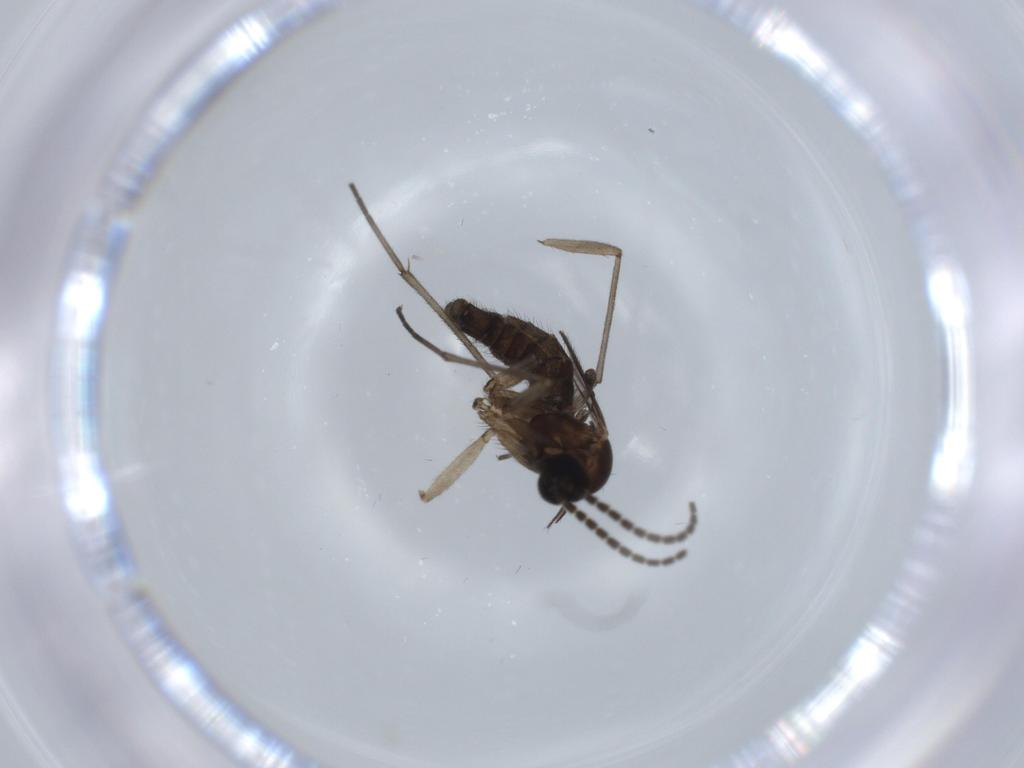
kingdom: Animalia
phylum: Arthropoda
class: Insecta
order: Diptera
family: Sciaridae
